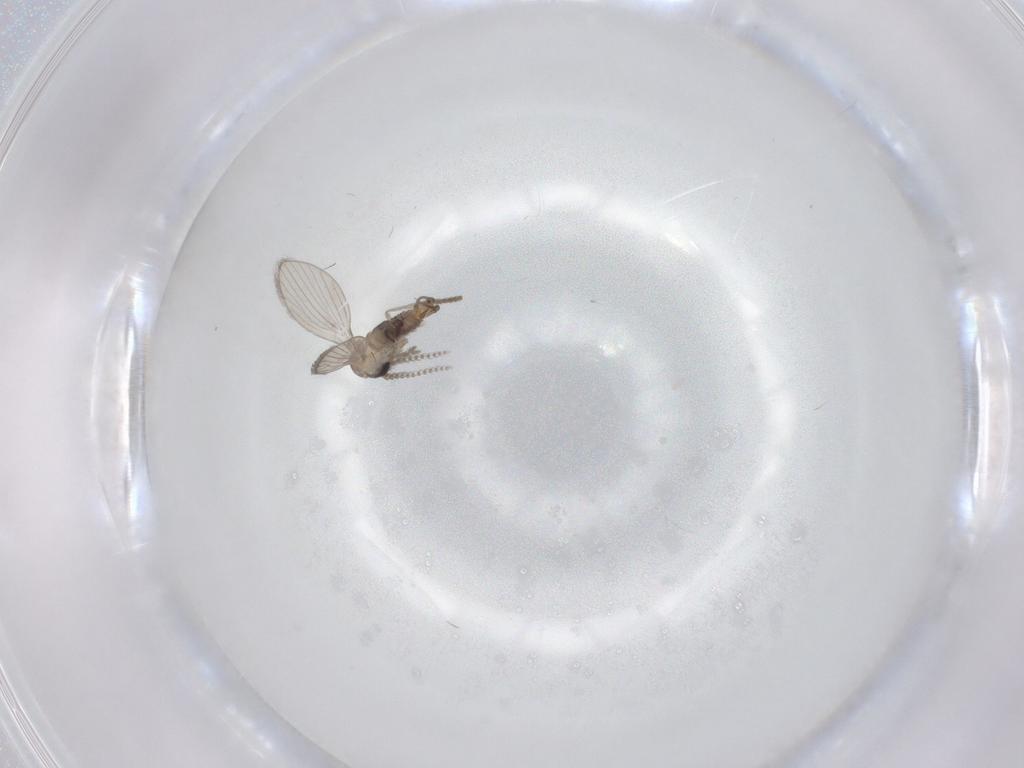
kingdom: Animalia
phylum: Arthropoda
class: Insecta
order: Diptera
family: Psychodidae
